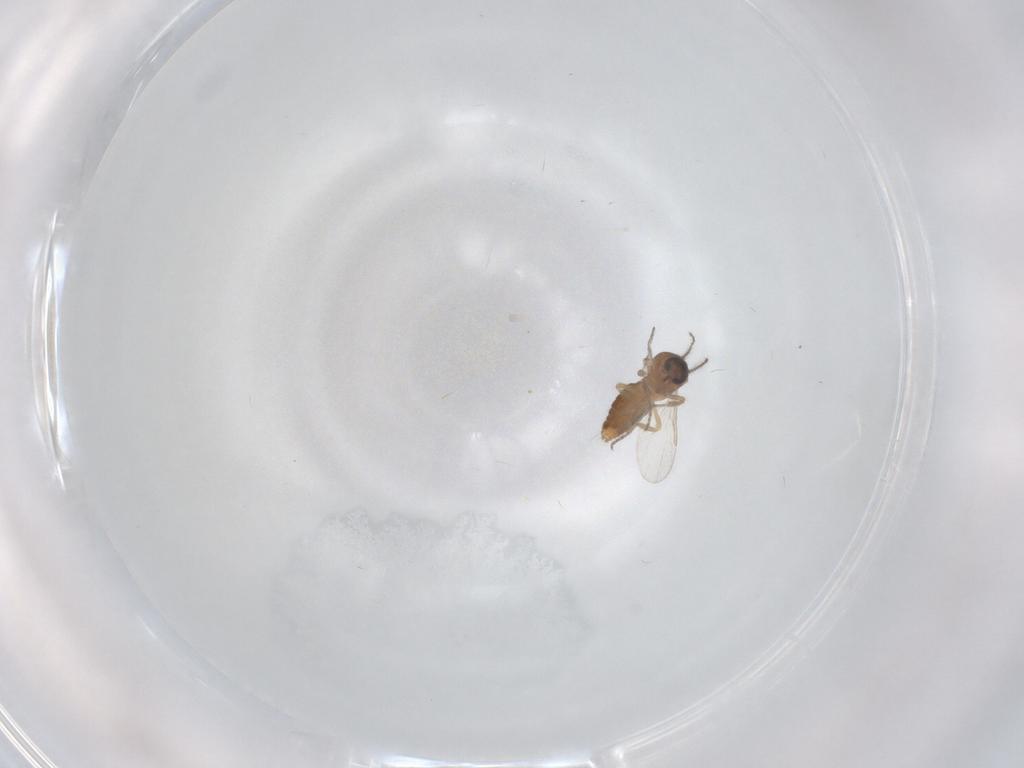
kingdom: Animalia
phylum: Arthropoda
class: Insecta
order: Diptera
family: Ceratopogonidae
